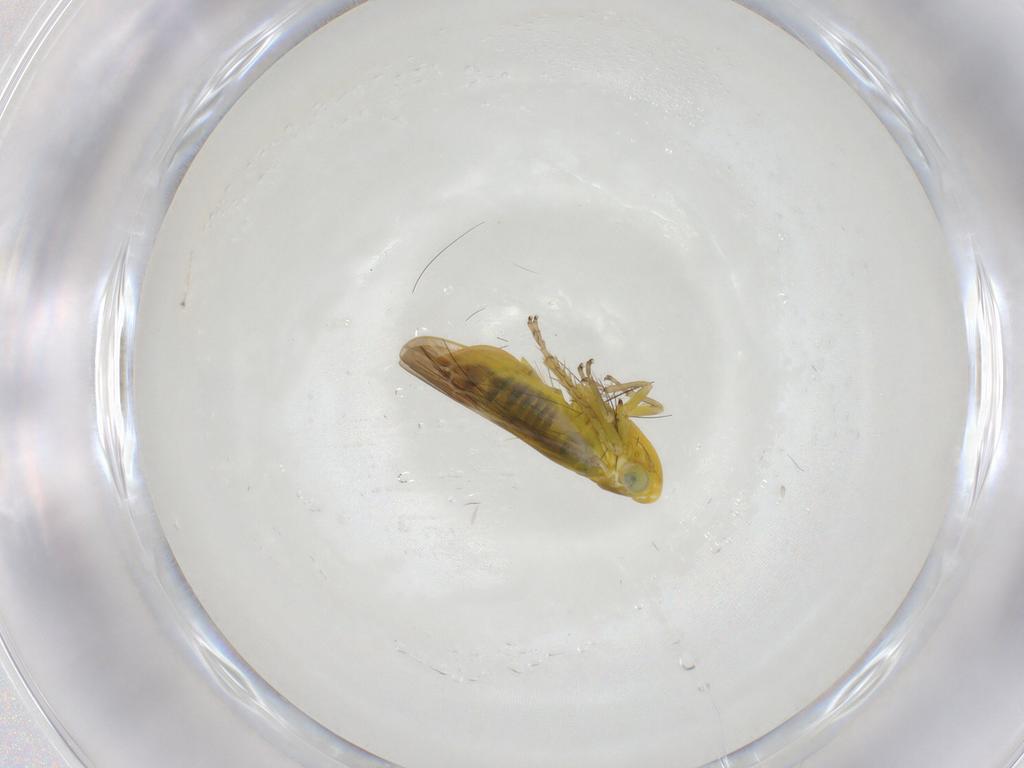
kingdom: Animalia
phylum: Arthropoda
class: Insecta
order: Hemiptera
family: Cicadellidae
